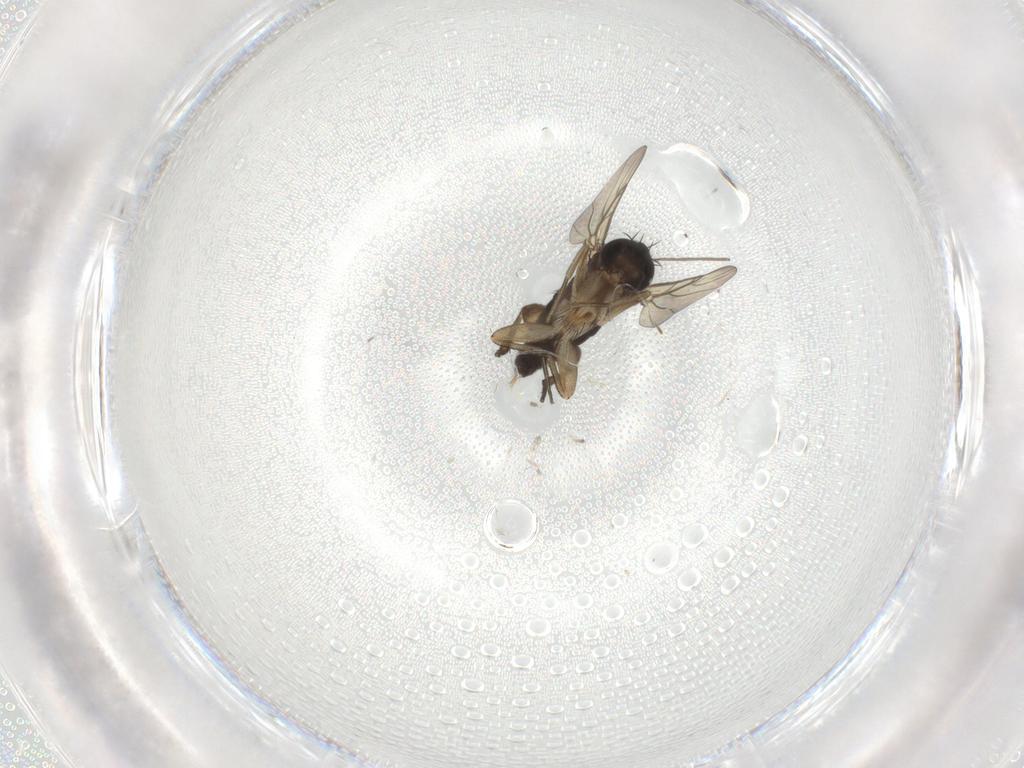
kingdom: Animalia
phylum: Arthropoda
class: Insecta
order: Diptera
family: Phoridae
